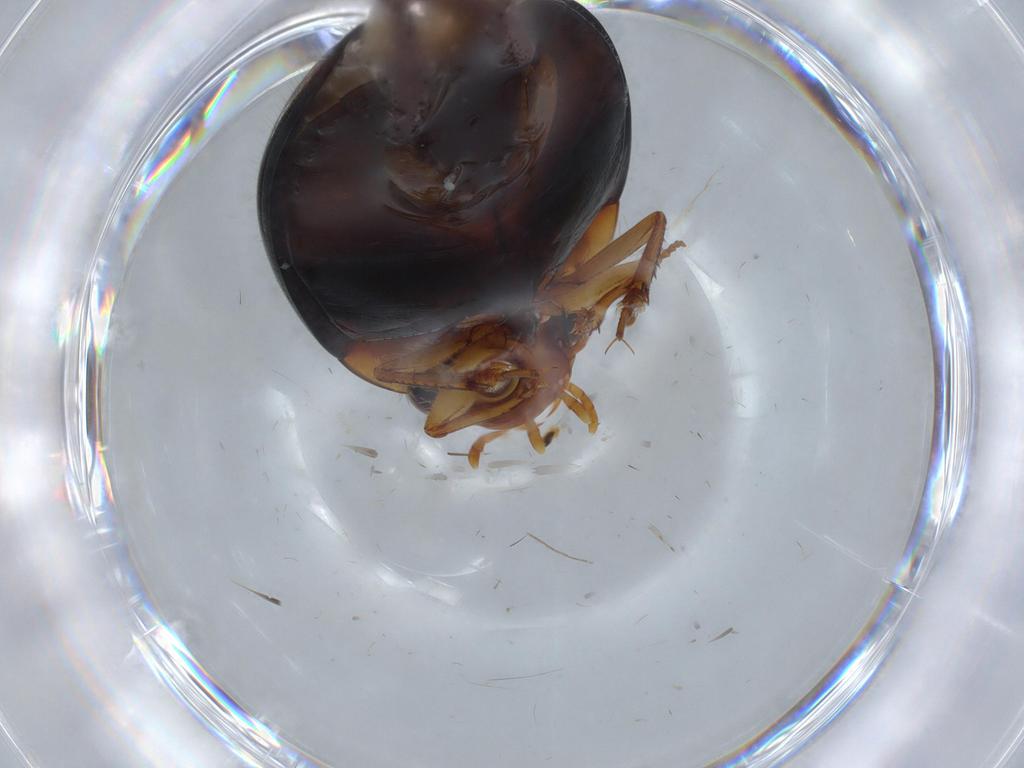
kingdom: Animalia
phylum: Arthropoda
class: Insecta
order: Coleoptera
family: Dytiscidae
